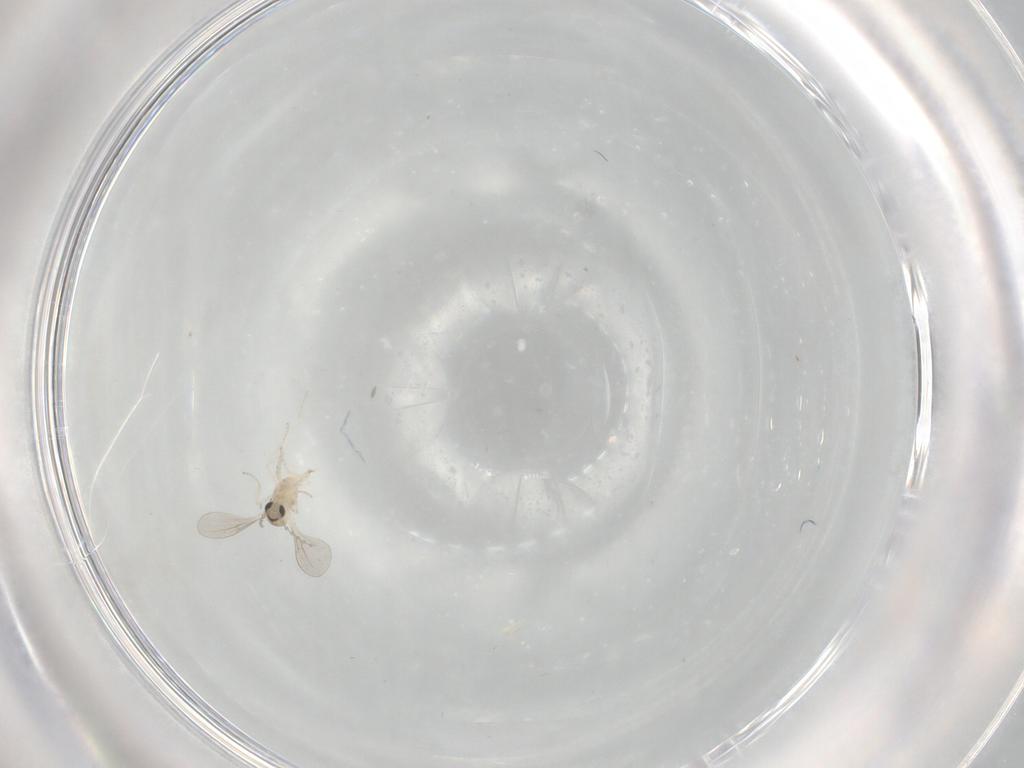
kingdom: Animalia
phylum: Arthropoda
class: Insecta
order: Diptera
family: Cecidomyiidae
